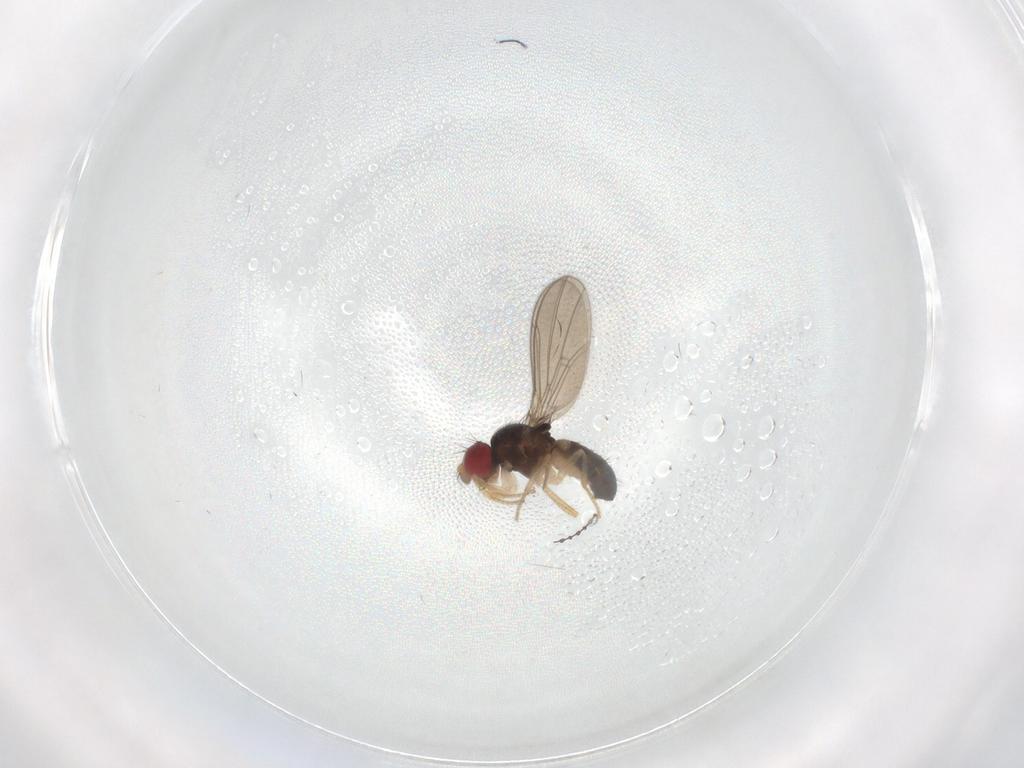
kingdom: Animalia
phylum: Arthropoda
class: Insecta
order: Diptera
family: Drosophilidae
